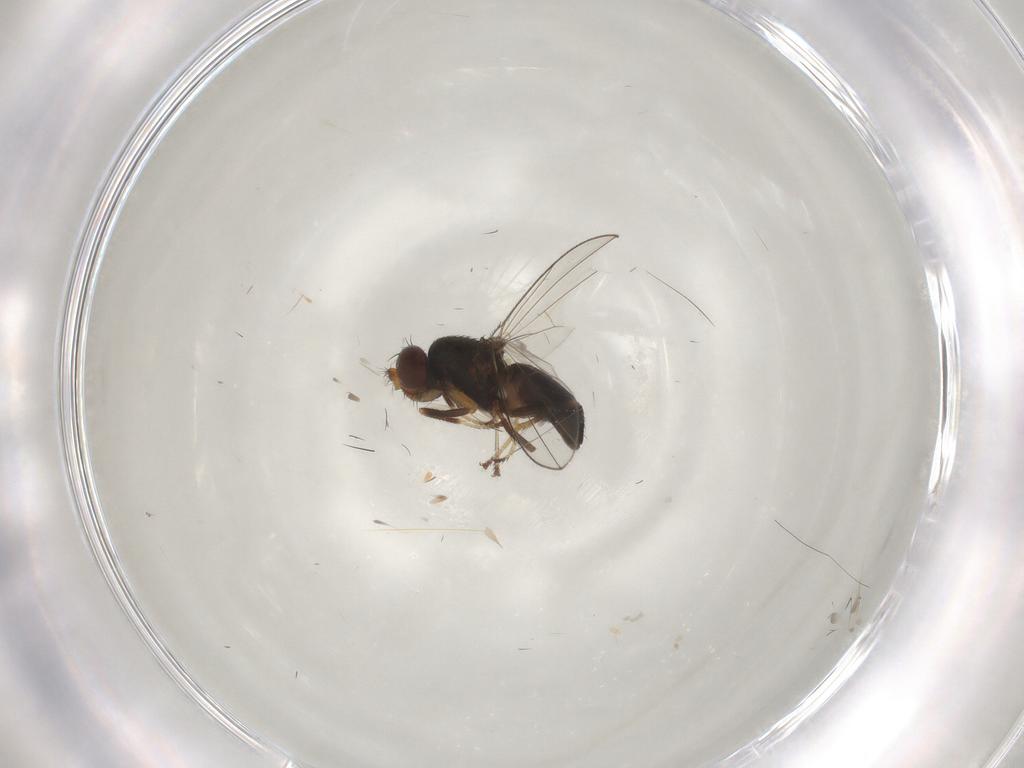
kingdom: Animalia
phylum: Arthropoda
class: Insecta
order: Diptera
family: Ephydridae
